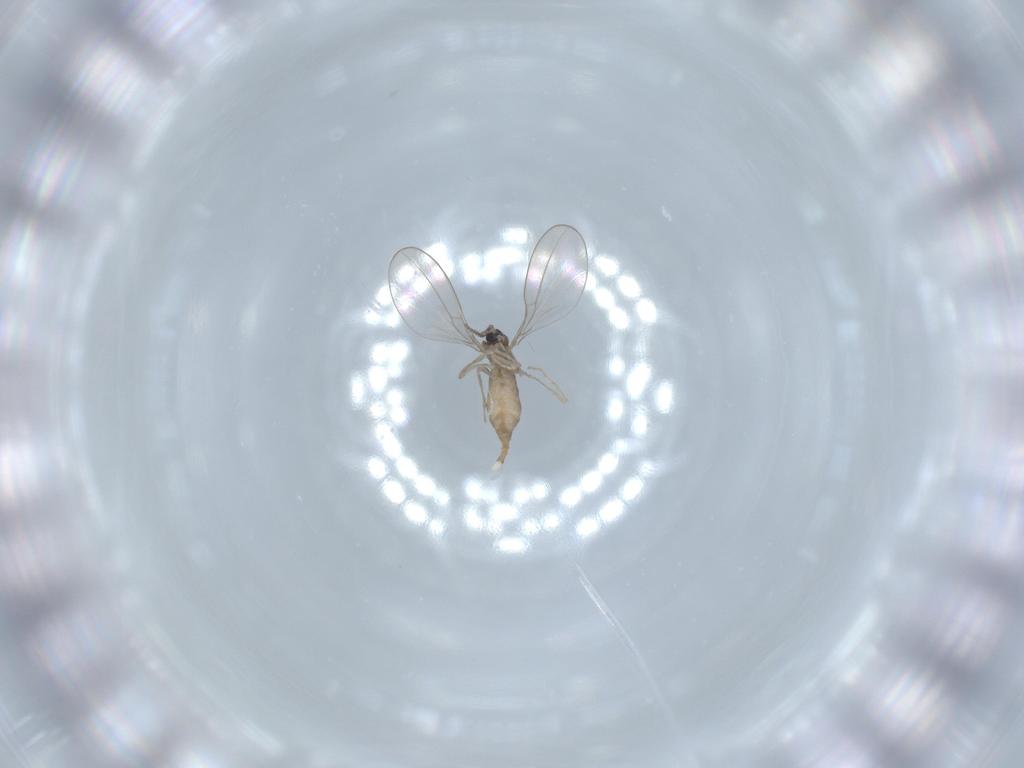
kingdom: Animalia
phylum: Arthropoda
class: Insecta
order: Diptera
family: Cecidomyiidae
